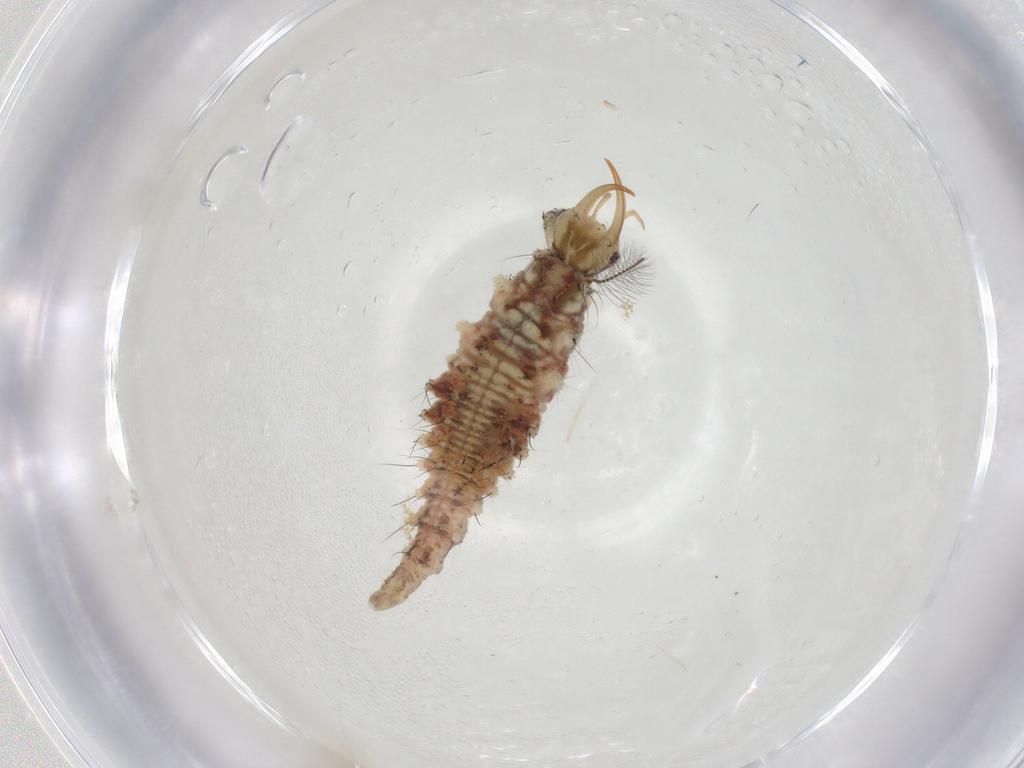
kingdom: Animalia
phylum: Arthropoda
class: Insecta
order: Neuroptera
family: Chrysopidae
